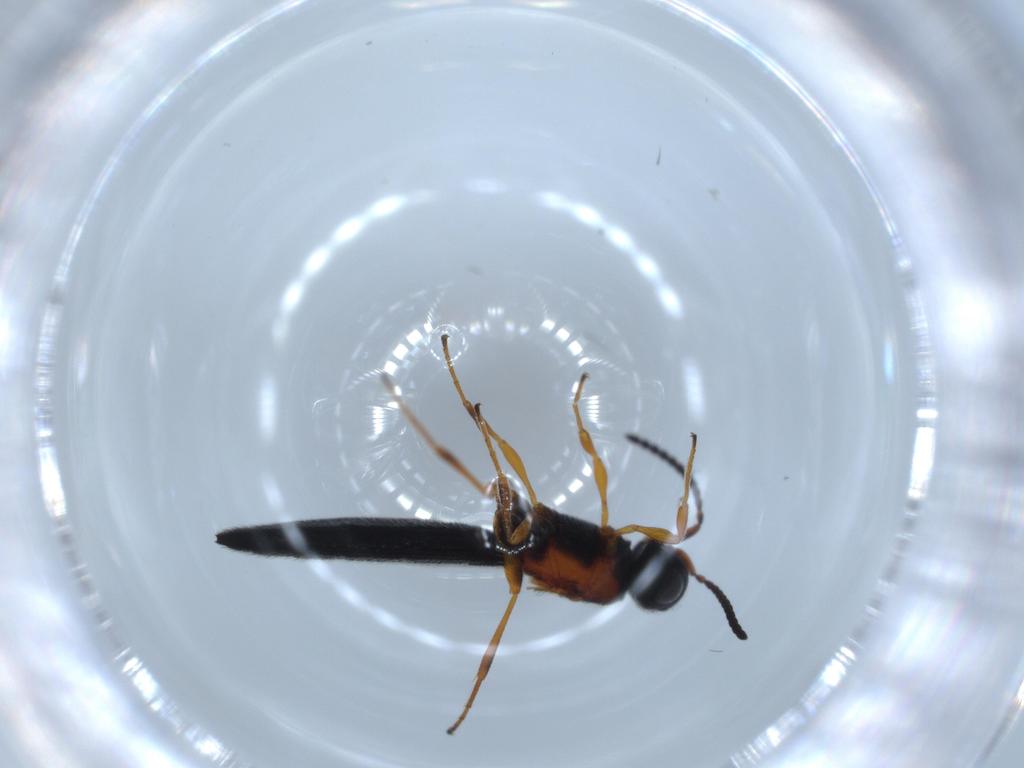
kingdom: Animalia
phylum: Arthropoda
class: Insecta
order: Hymenoptera
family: Scelionidae
